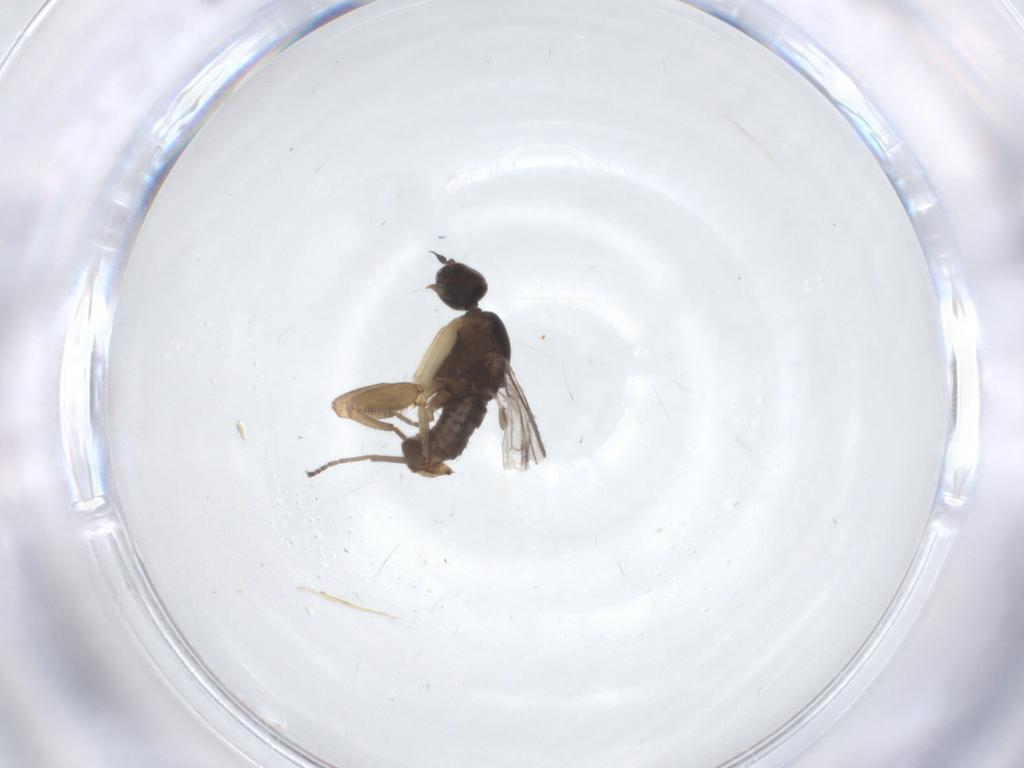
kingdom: Animalia
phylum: Arthropoda
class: Insecta
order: Diptera
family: Empididae
